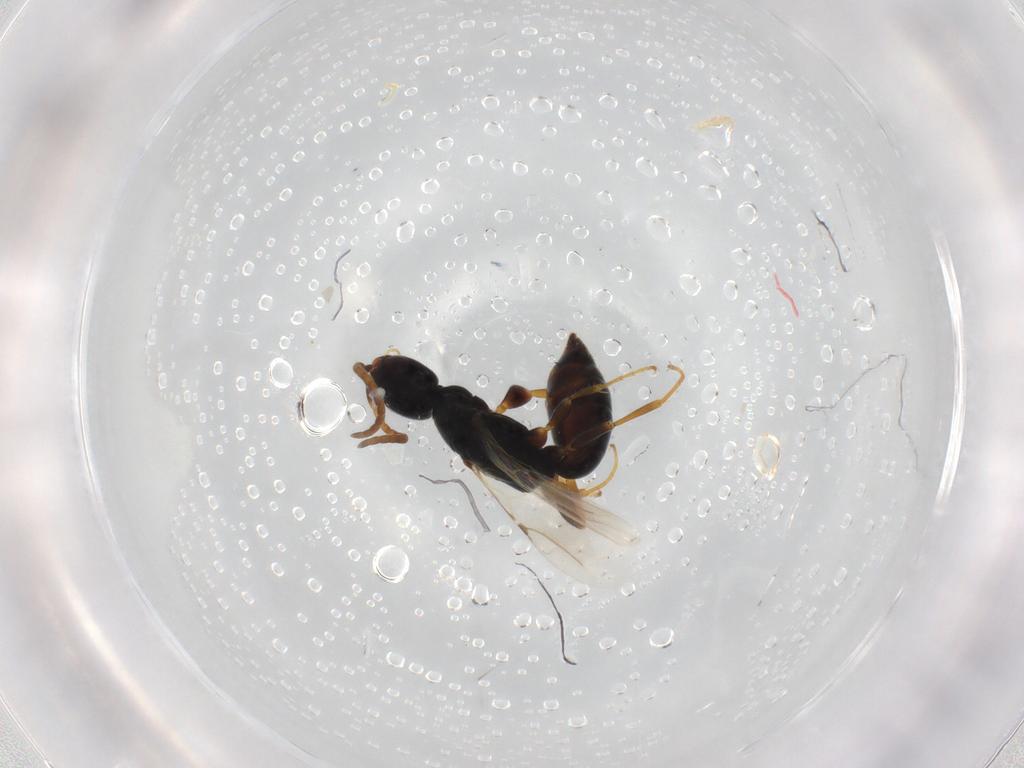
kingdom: Animalia
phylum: Arthropoda
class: Insecta
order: Hymenoptera
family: Bethylidae
